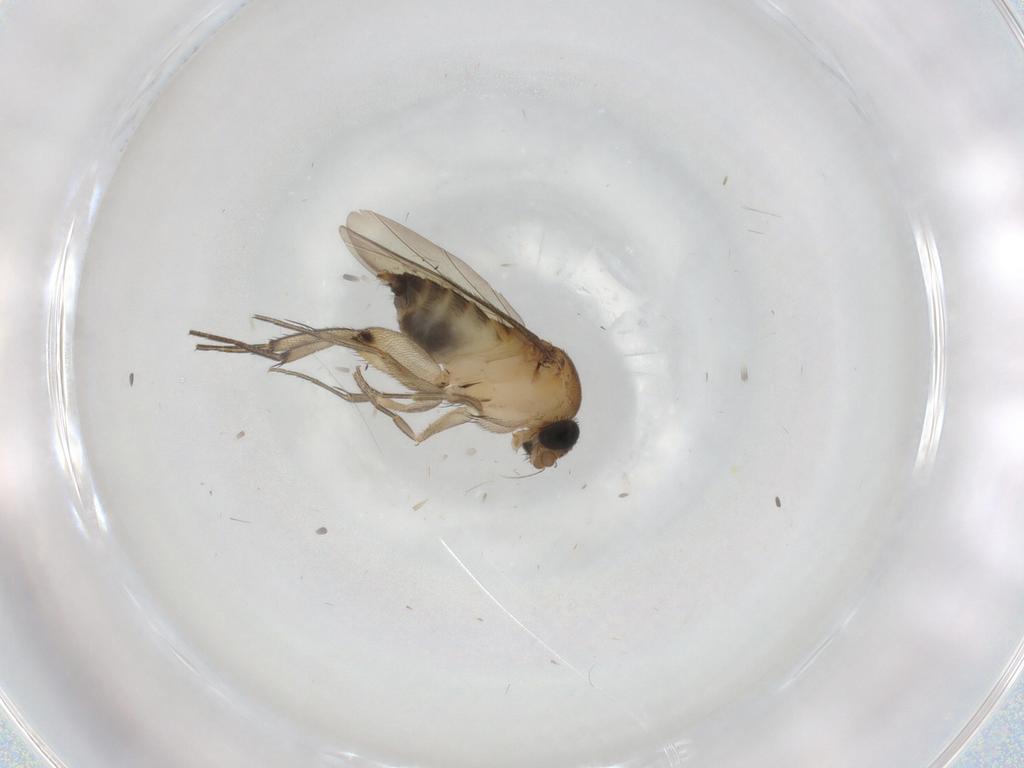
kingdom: Animalia
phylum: Arthropoda
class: Insecta
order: Diptera
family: Phoridae
